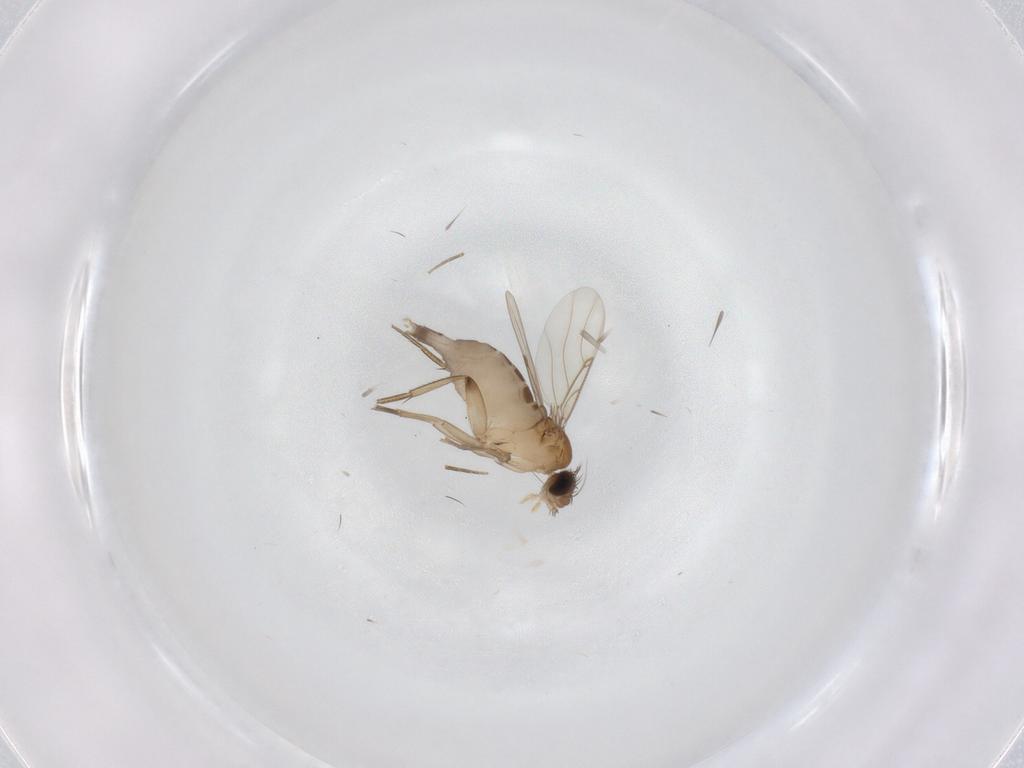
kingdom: Animalia
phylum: Arthropoda
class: Insecta
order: Diptera
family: Phoridae
